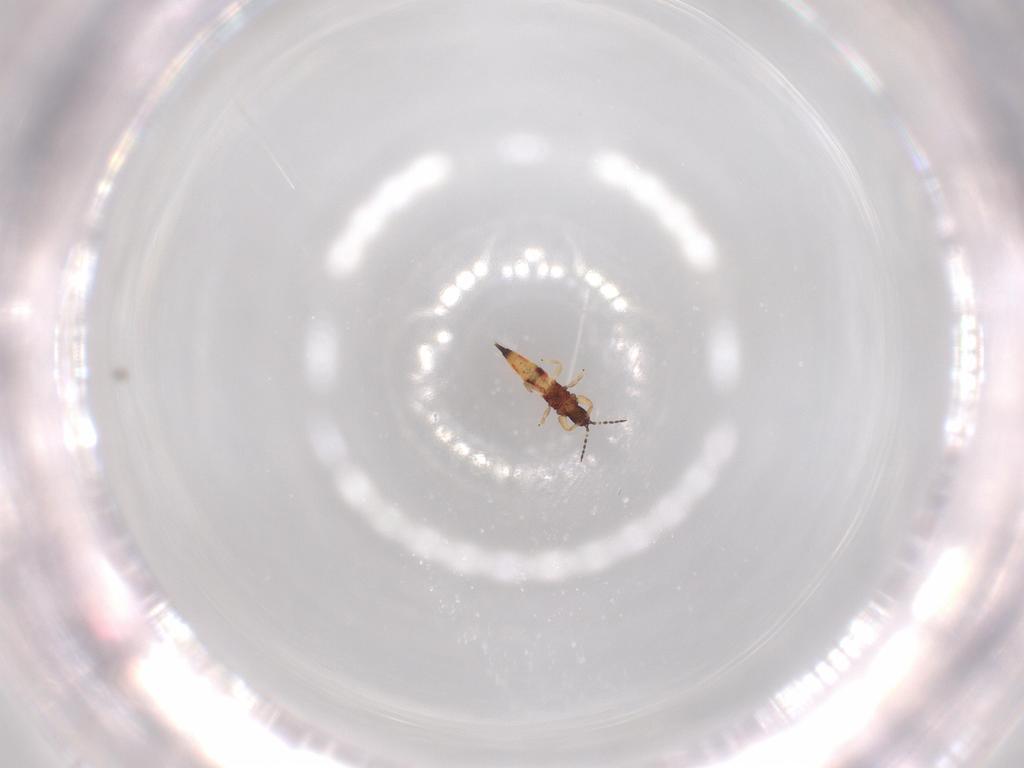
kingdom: Animalia
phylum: Arthropoda
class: Insecta
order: Thysanoptera
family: Phlaeothripidae
